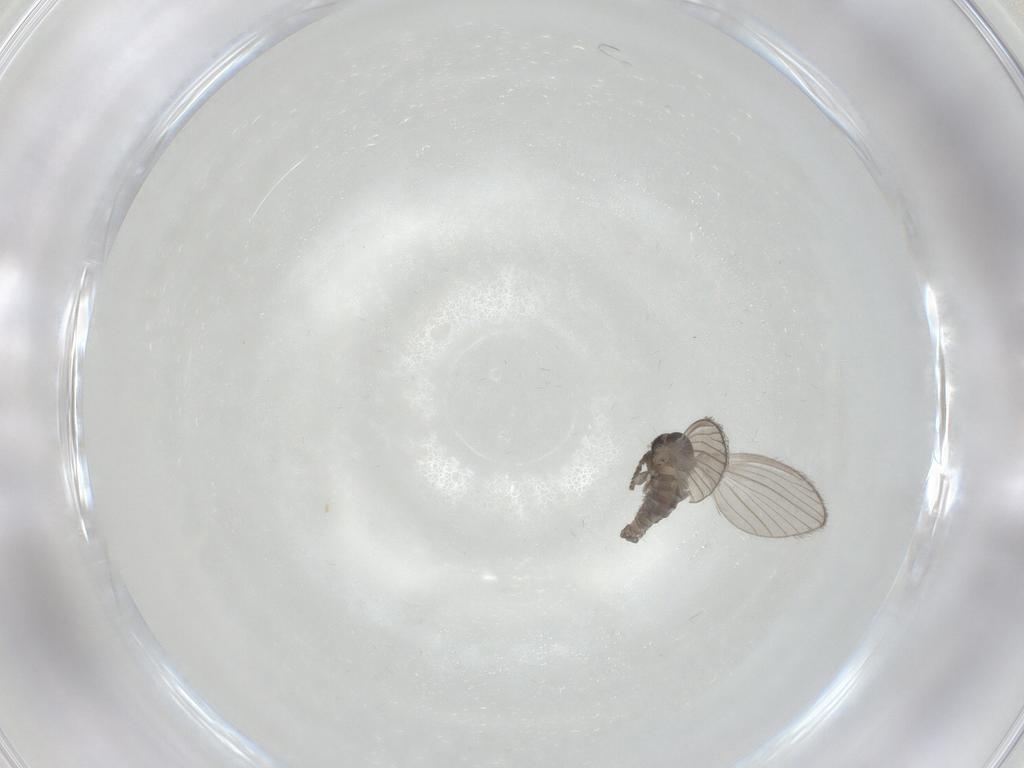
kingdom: Animalia
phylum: Arthropoda
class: Insecta
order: Diptera
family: Psychodidae
